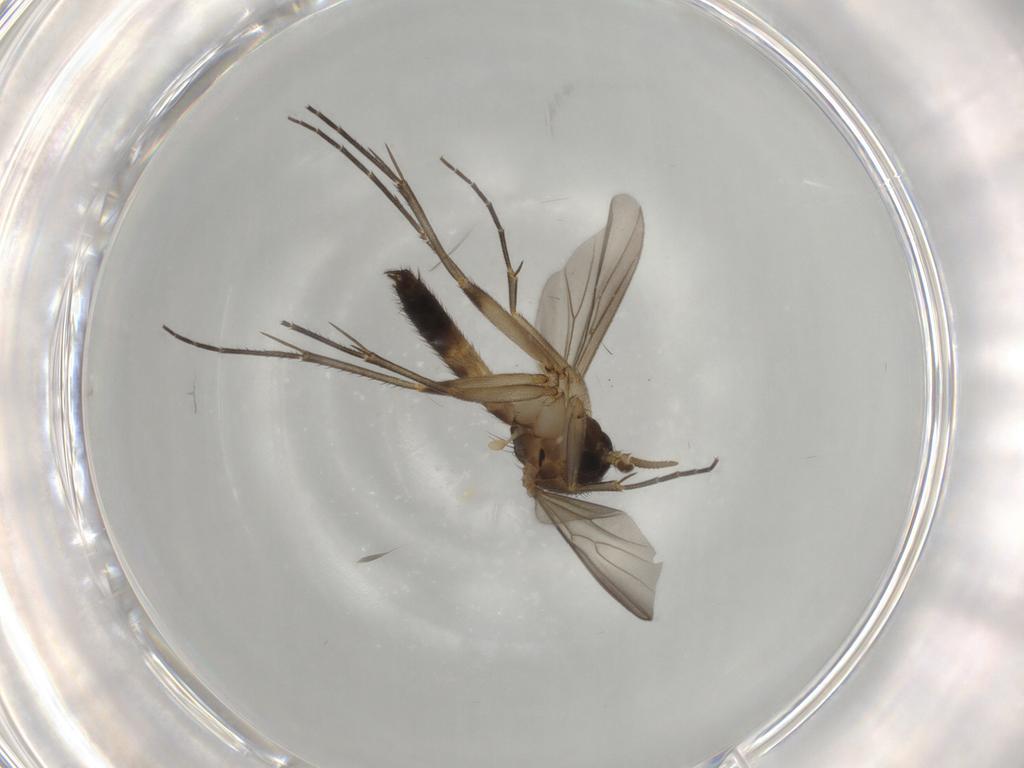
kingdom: Animalia
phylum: Arthropoda
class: Insecta
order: Diptera
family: Mycetophilidae
